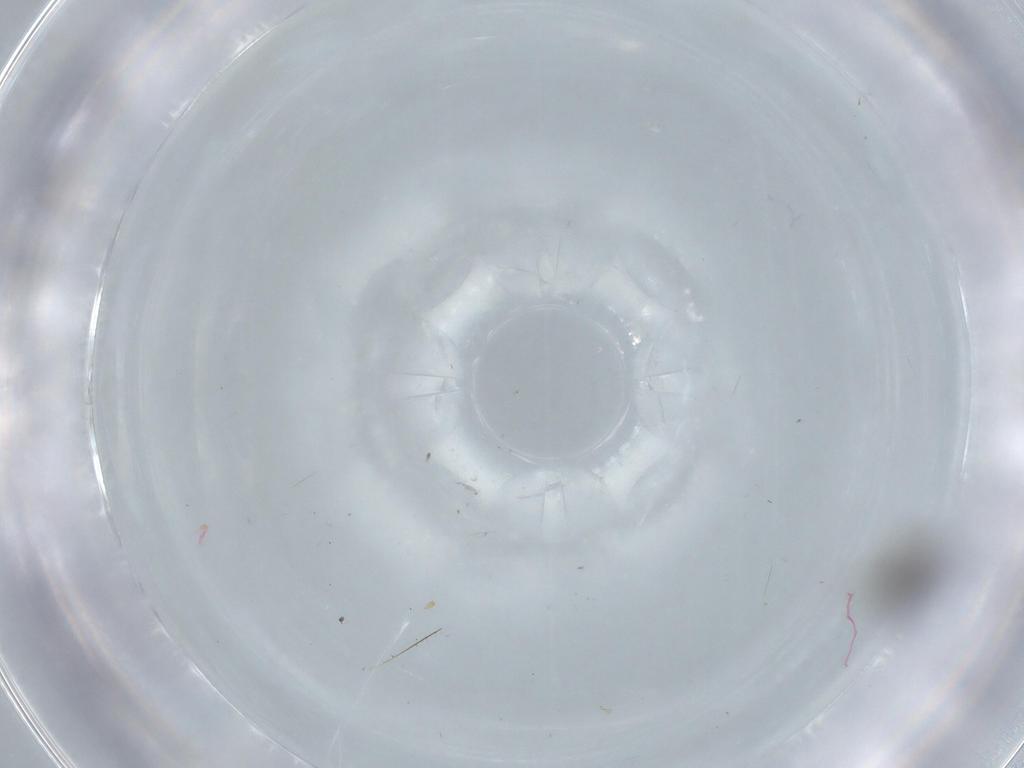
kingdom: Animalia
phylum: Arthropoda
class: Insecta
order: Diptera
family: Phoridae
